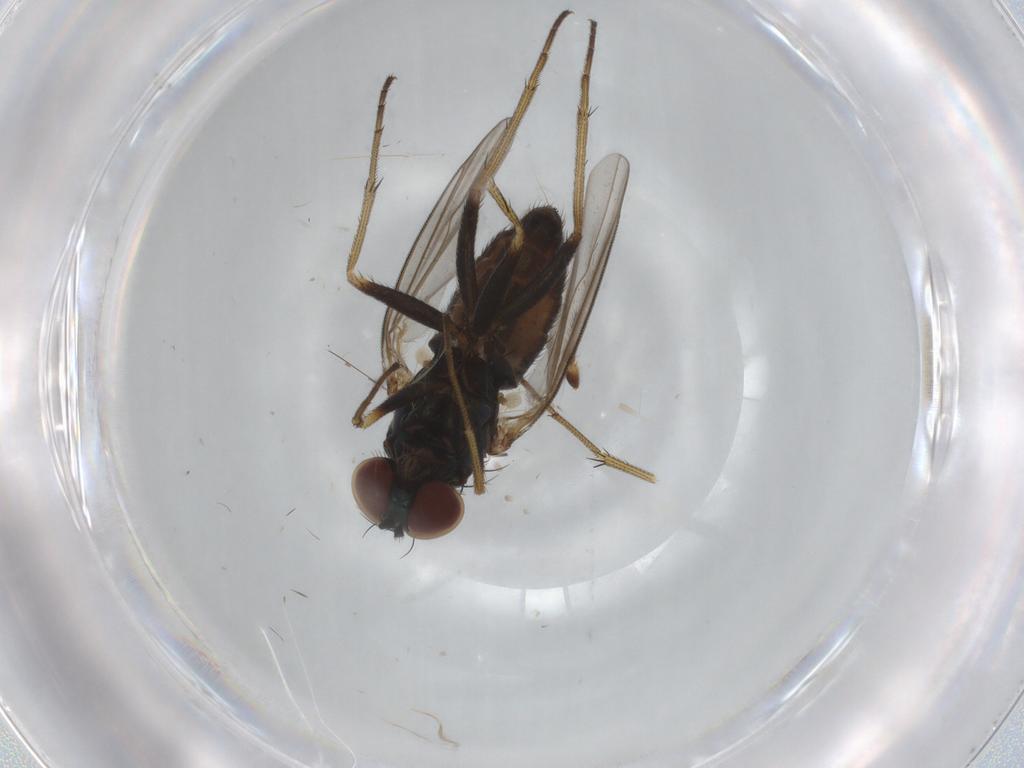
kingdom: Animalia
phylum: Arthropoda
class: Insecta
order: Diptera
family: Dolichopodidae
